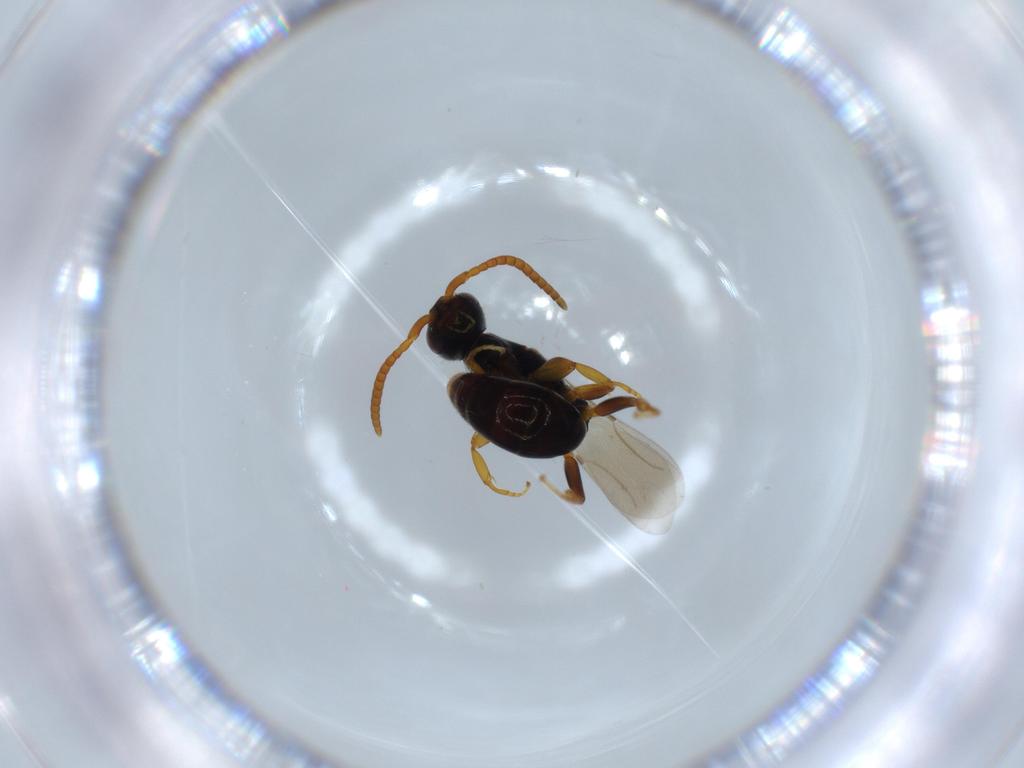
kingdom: Animalia
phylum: Arthropoda
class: Insecta
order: Hymenoptera
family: Bethylidae
